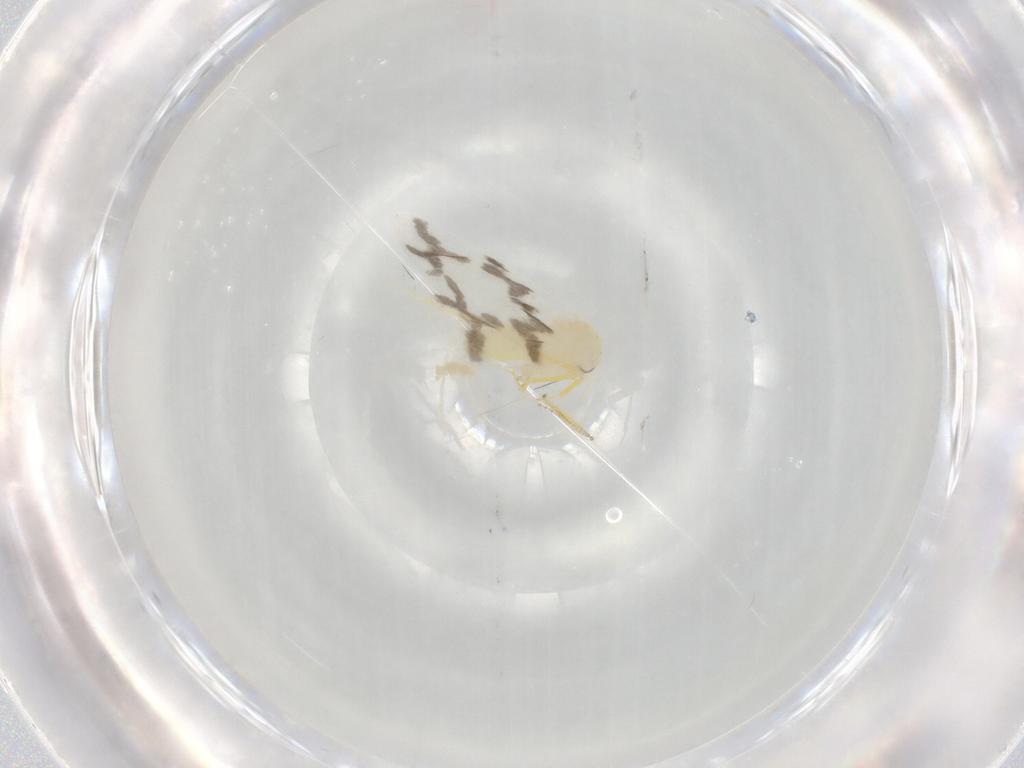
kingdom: Animalia
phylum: Arthropoda
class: Insecta
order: Hemiptera
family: Aleyrodidae
